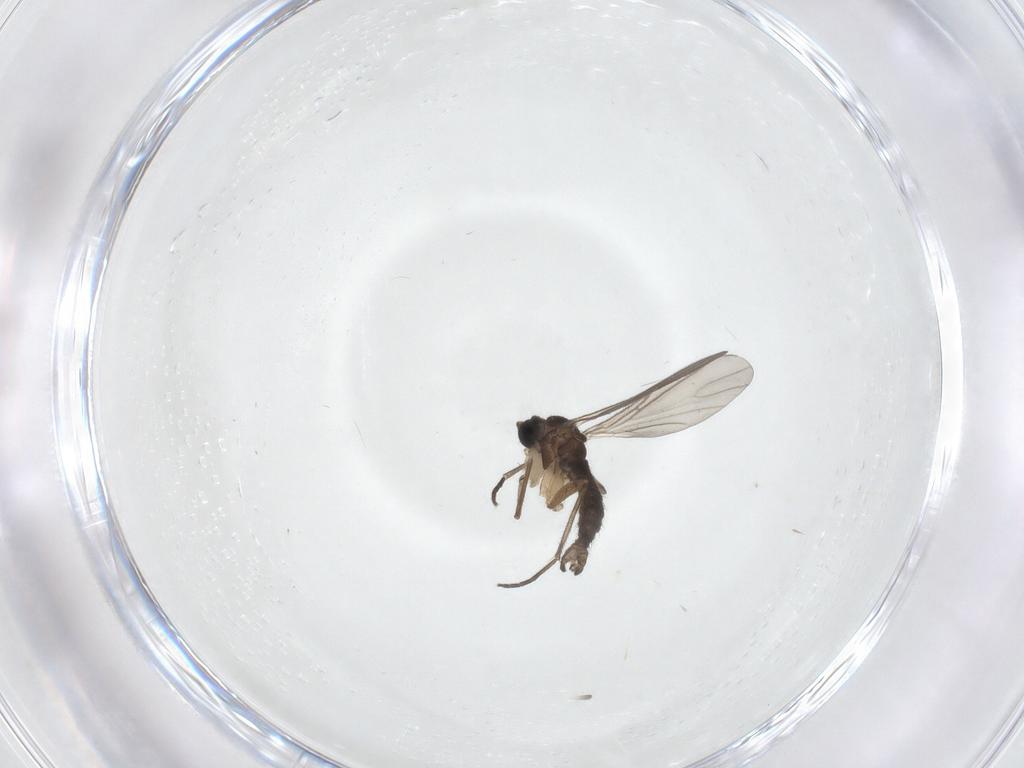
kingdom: Animalia
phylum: Arthropoda
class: Insecta
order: Diptera
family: Sciaridae
